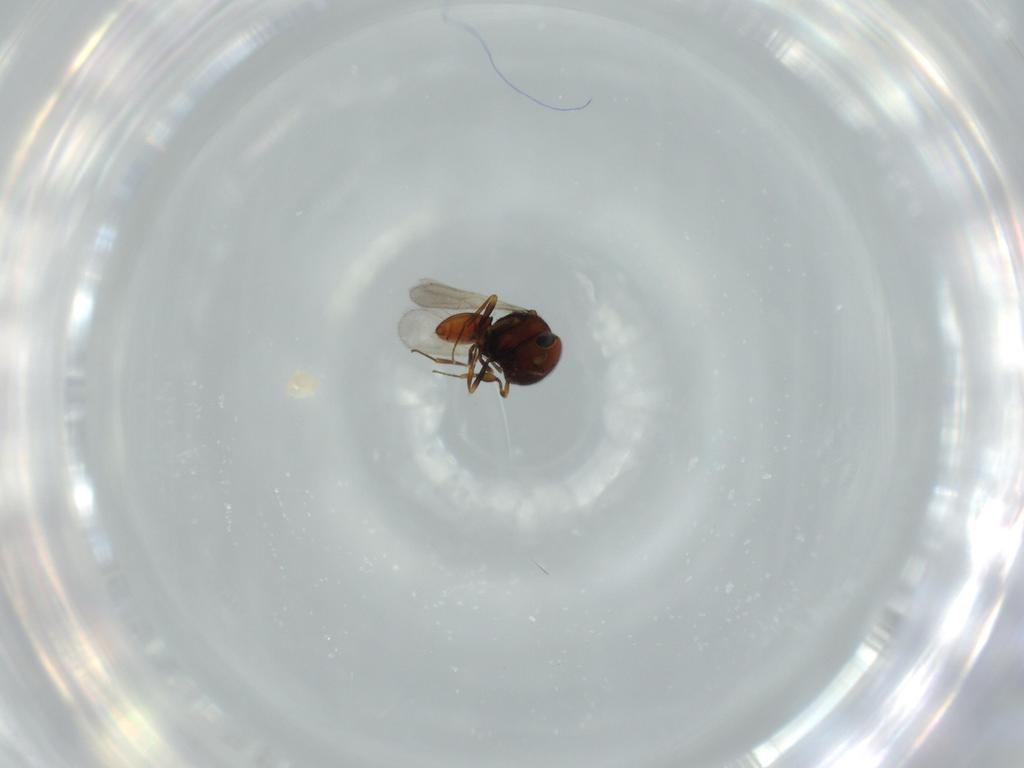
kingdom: Animalia
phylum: Arthropoda
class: Insecta
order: Hymenoptera
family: Scelionidae
